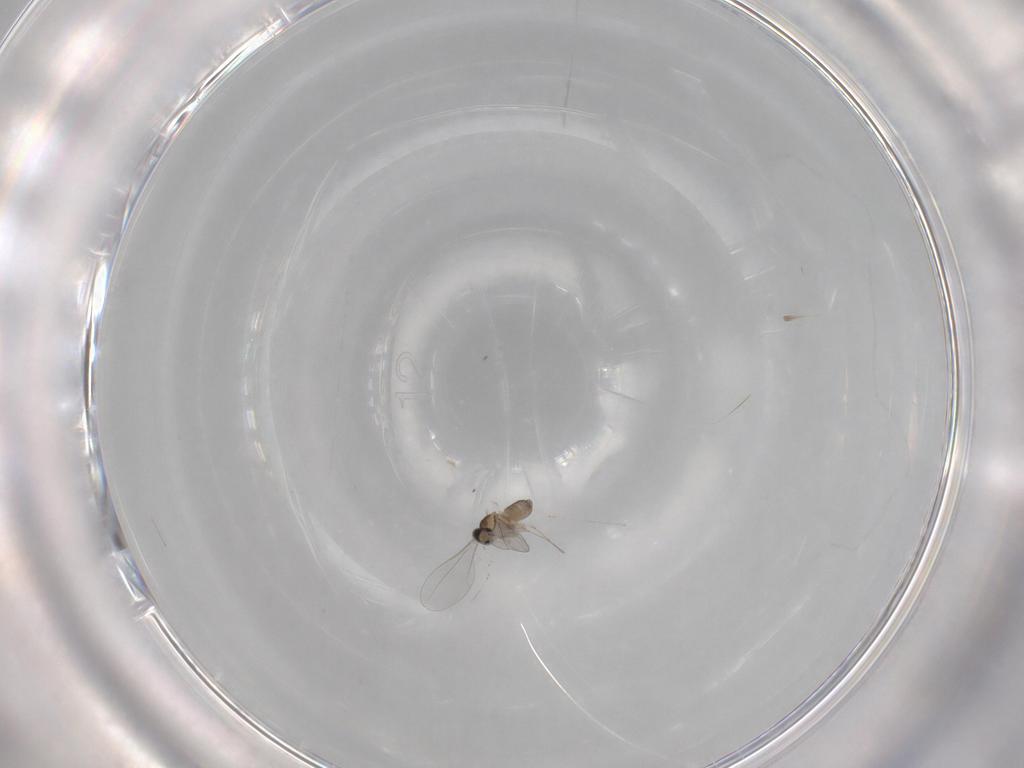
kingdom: Animalia
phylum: Arthropoda
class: Insecta
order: Diptera
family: Cecidomyiidae
